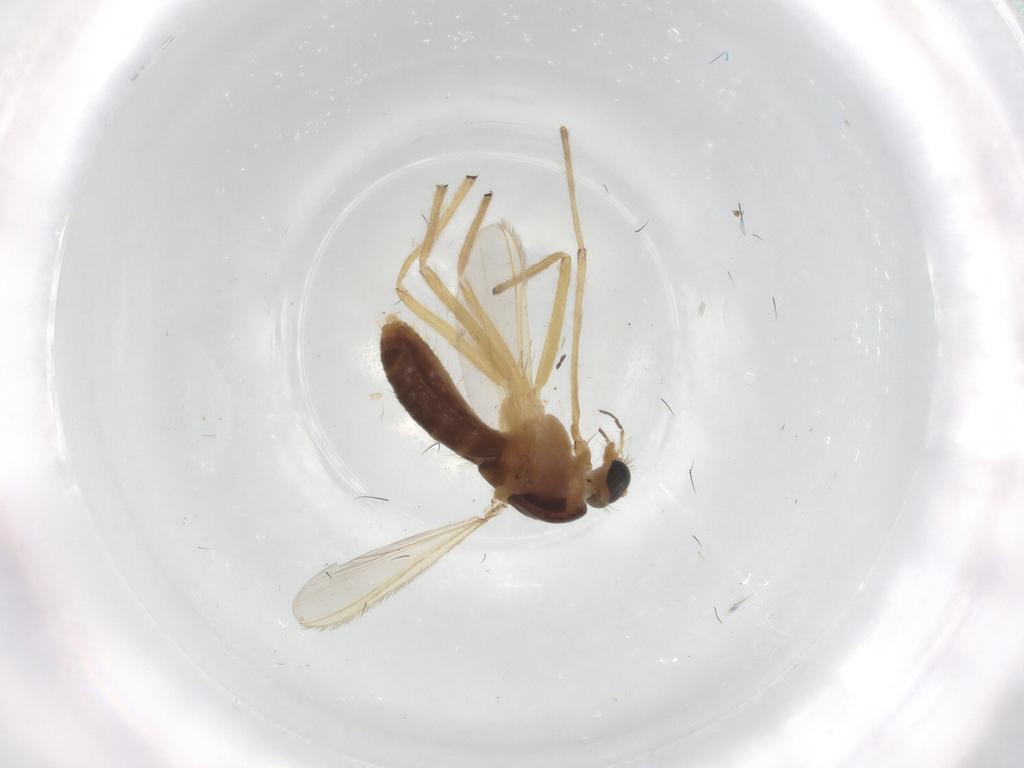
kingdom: Animalia
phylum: Arthropoda
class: Insecta
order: Diptera
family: Chironomidae
